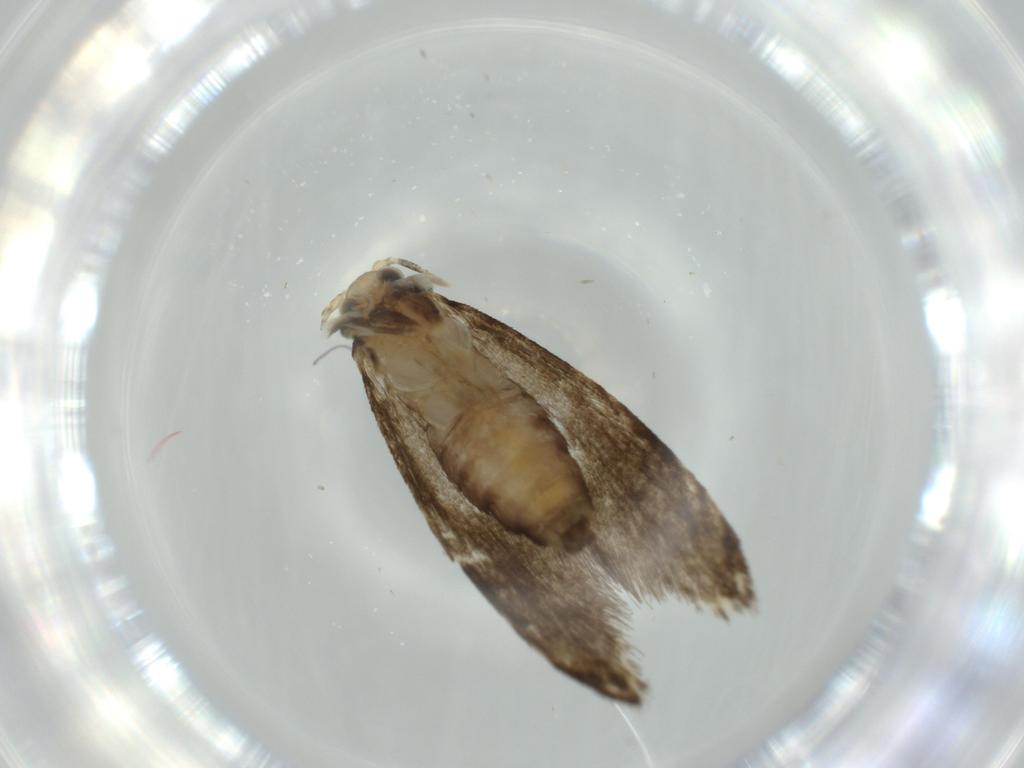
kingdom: Animalia
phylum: Arthropoda
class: Insecta
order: Lepidoptera
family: Tineidae
